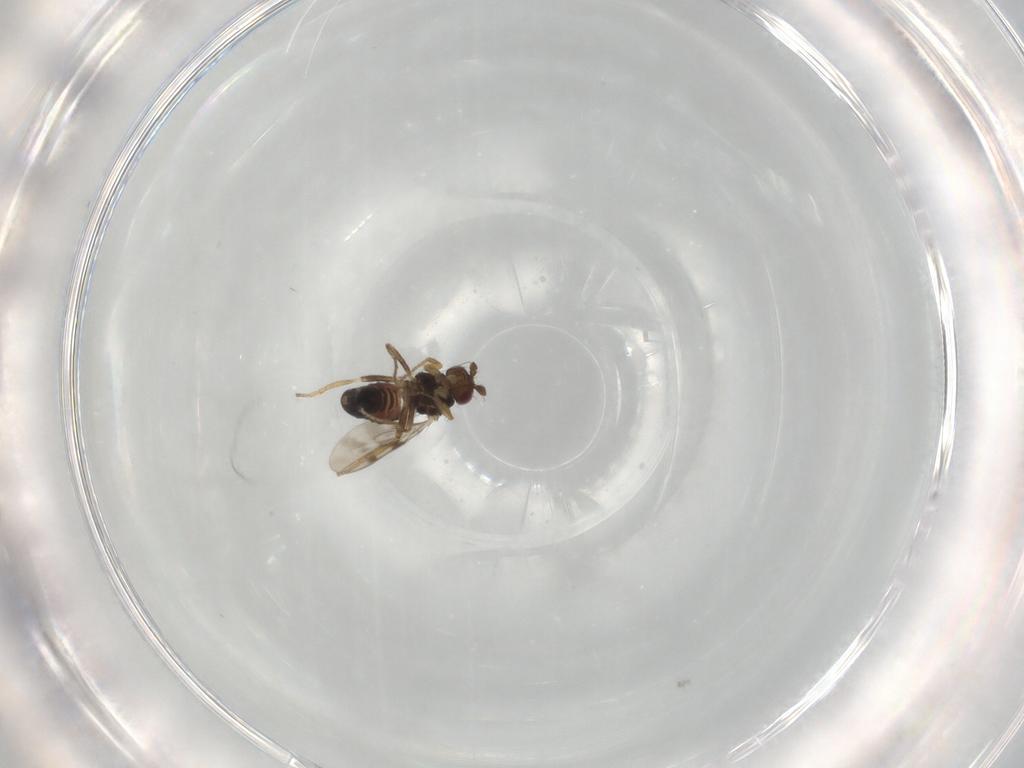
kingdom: Animalia
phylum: Arthropoda
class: Insecta
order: Diptera
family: Sphaeroceridae
